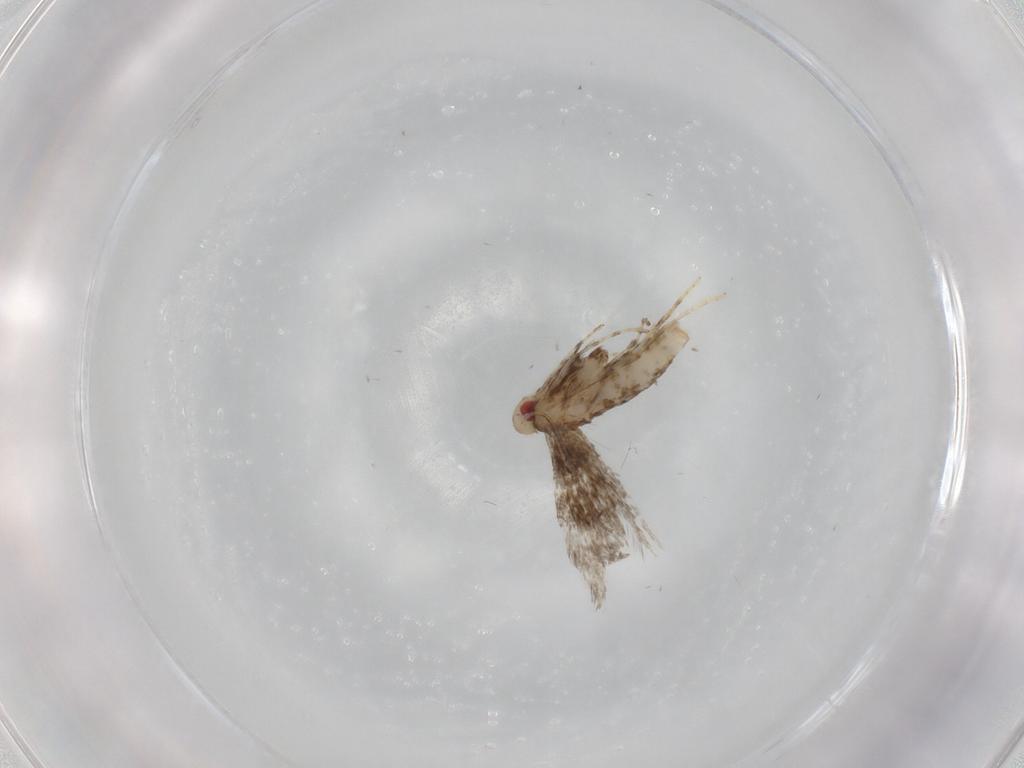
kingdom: Animalia
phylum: Arthropoda
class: Insecta
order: Lepidoptera
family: Gracillariidae
